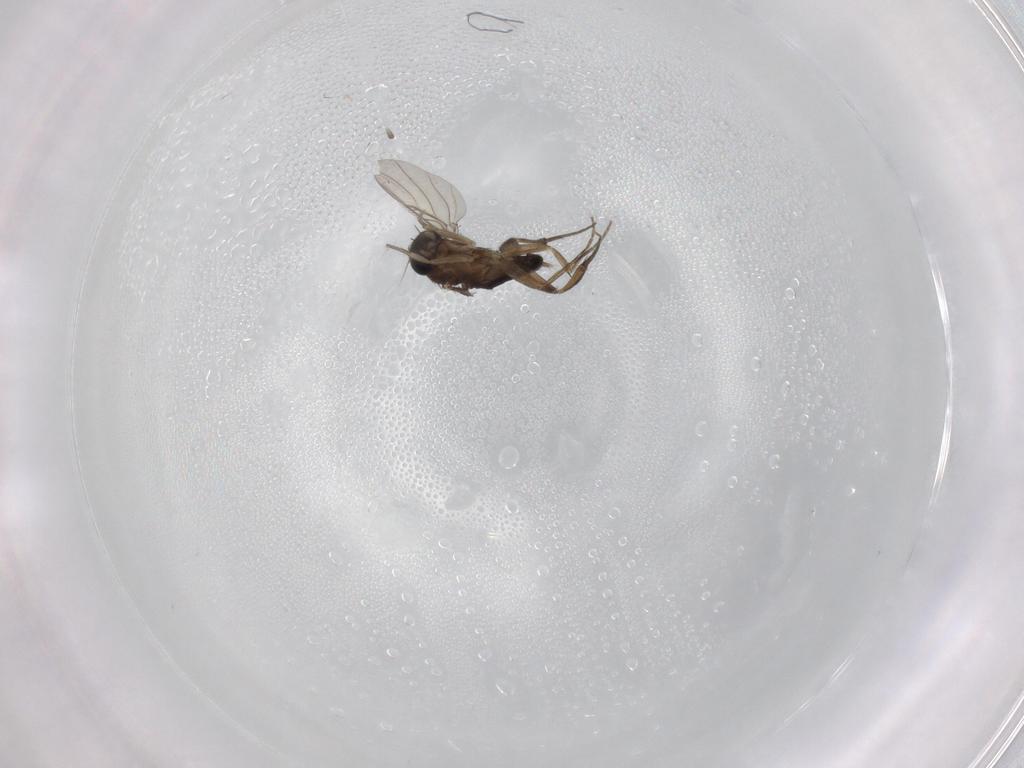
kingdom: Animalia
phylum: Arthropoda
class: Insecta
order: Diptera
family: Phoridae
